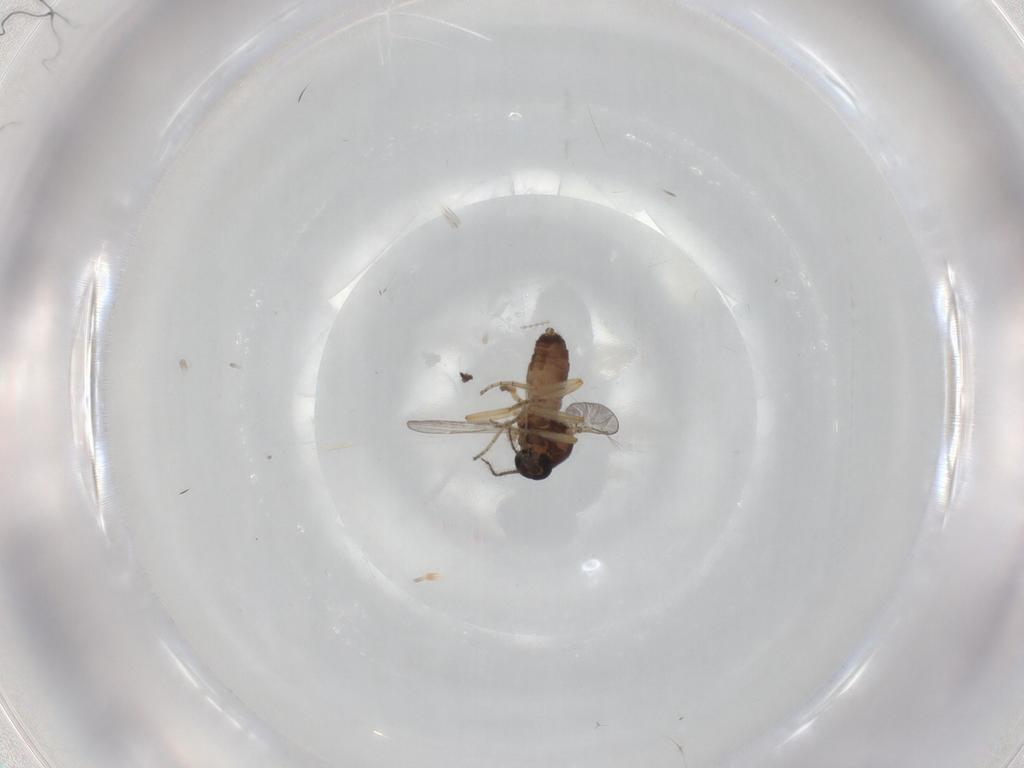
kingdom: Animalia
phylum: Arthropoda
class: Insecta
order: Diptera
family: Ceratopogonidae
